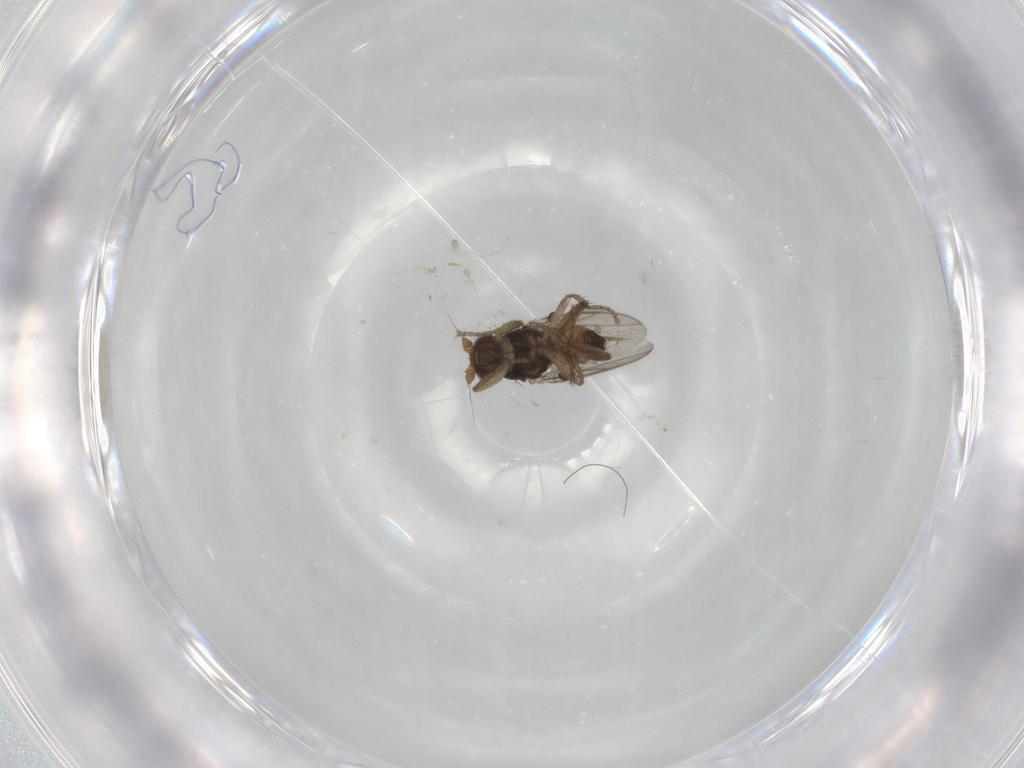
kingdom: Animalia
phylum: Arthropoda
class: Insecta
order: Diptera
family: Sphaeroceridae
